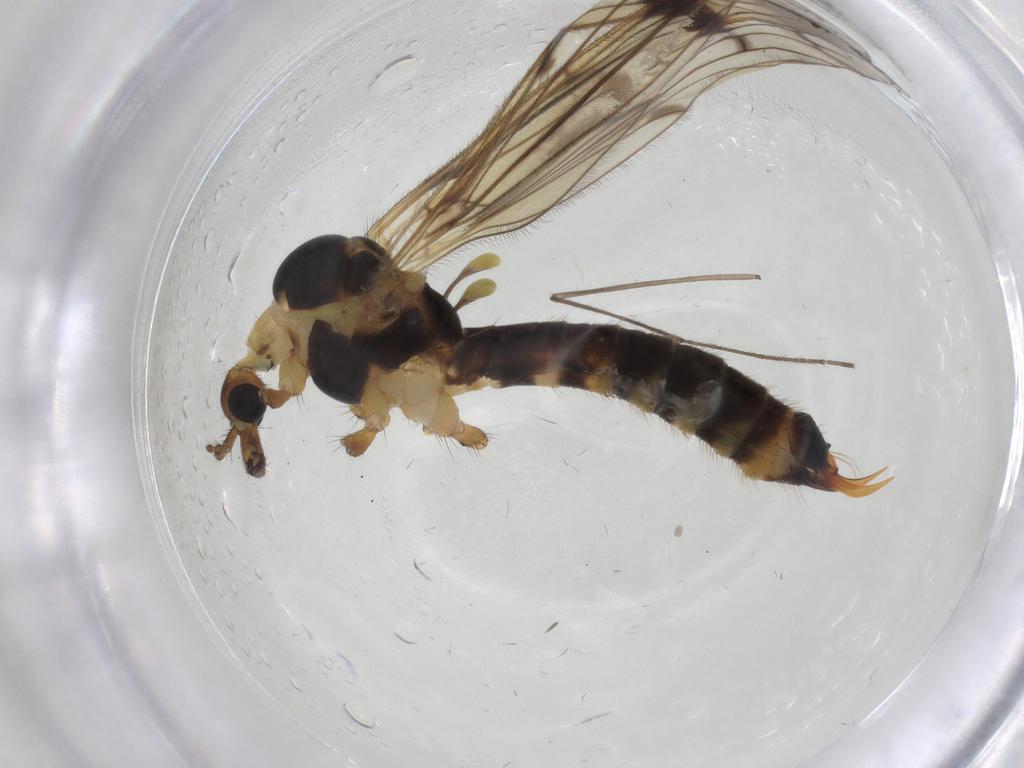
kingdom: Animalia
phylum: Arthropoda
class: Insecta
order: Diptera
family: Limoniidae
